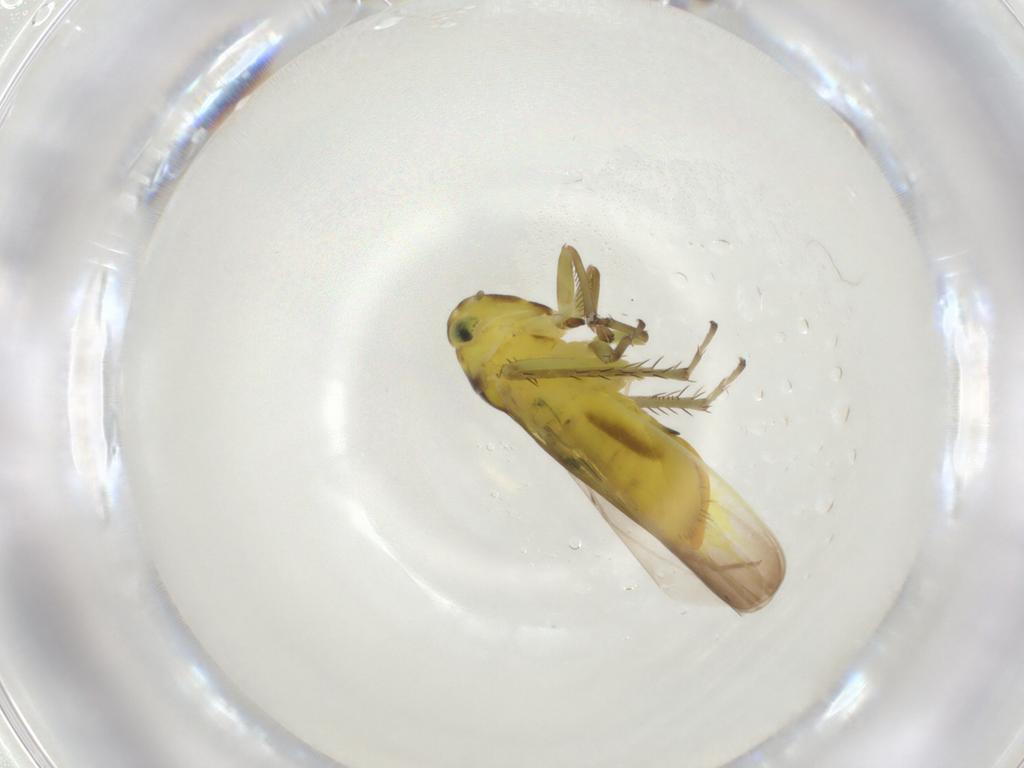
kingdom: Animalia
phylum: Arthropoda
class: Insecta
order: Hemiptera
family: Cicadellidae
